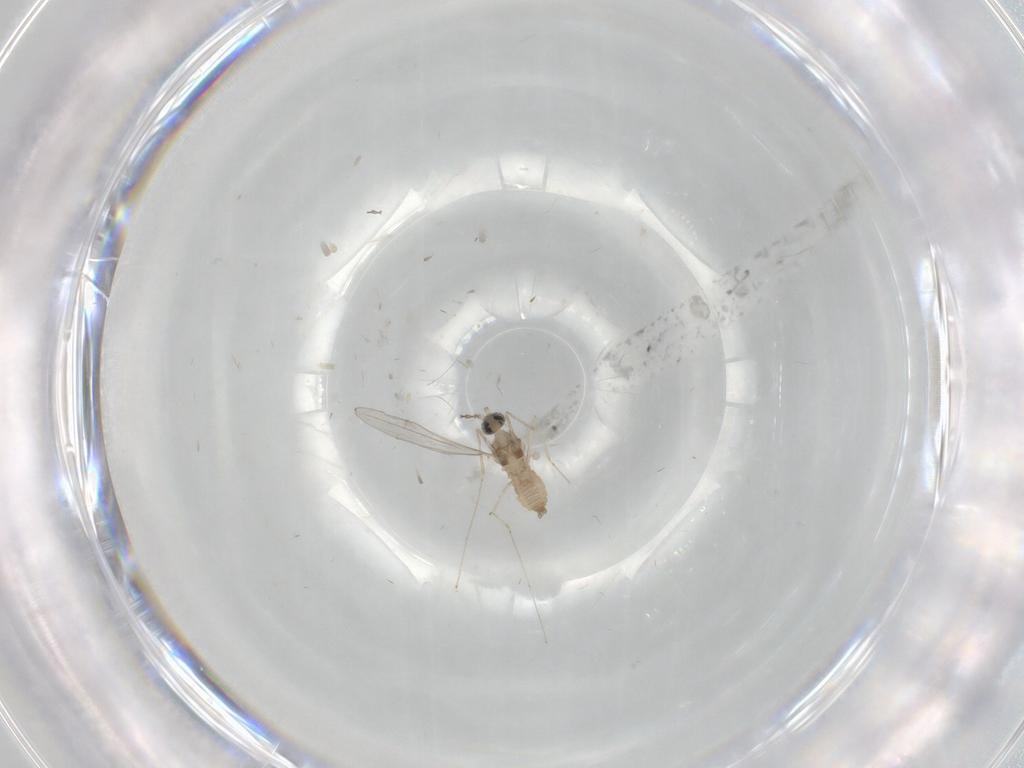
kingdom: Animalia
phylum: Arthropoda
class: Insecta
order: Diptera
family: Cecidomyiidae
